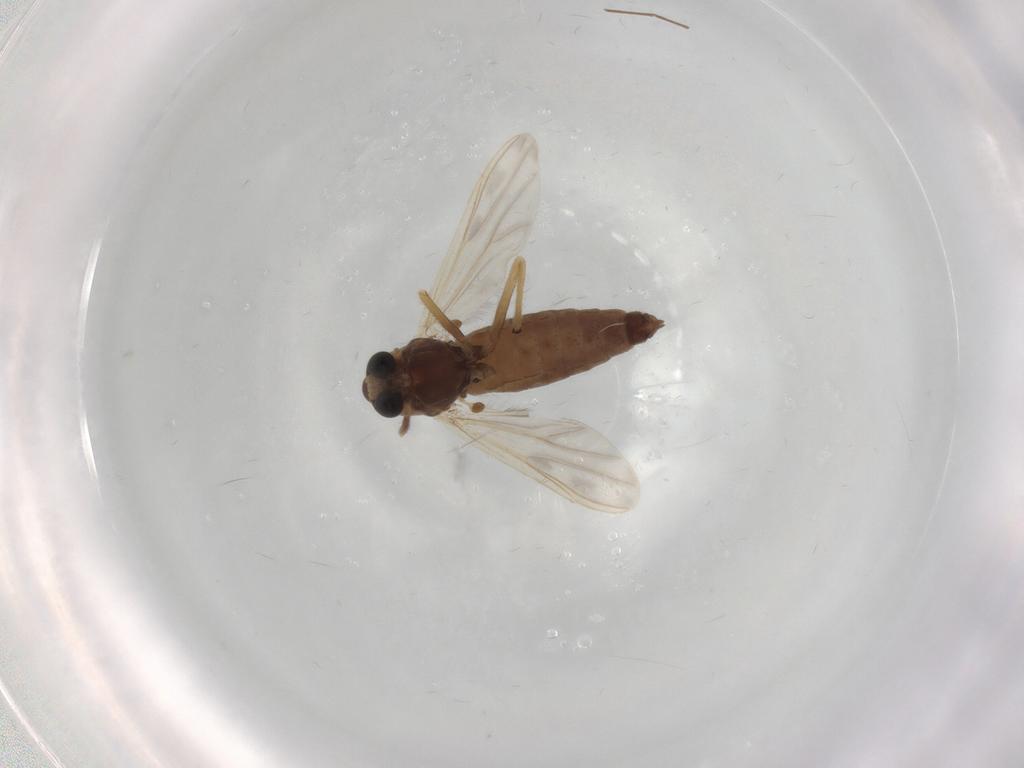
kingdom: Animalia
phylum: Arthropoda
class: Insecta
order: Diptera
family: Chironomidae
